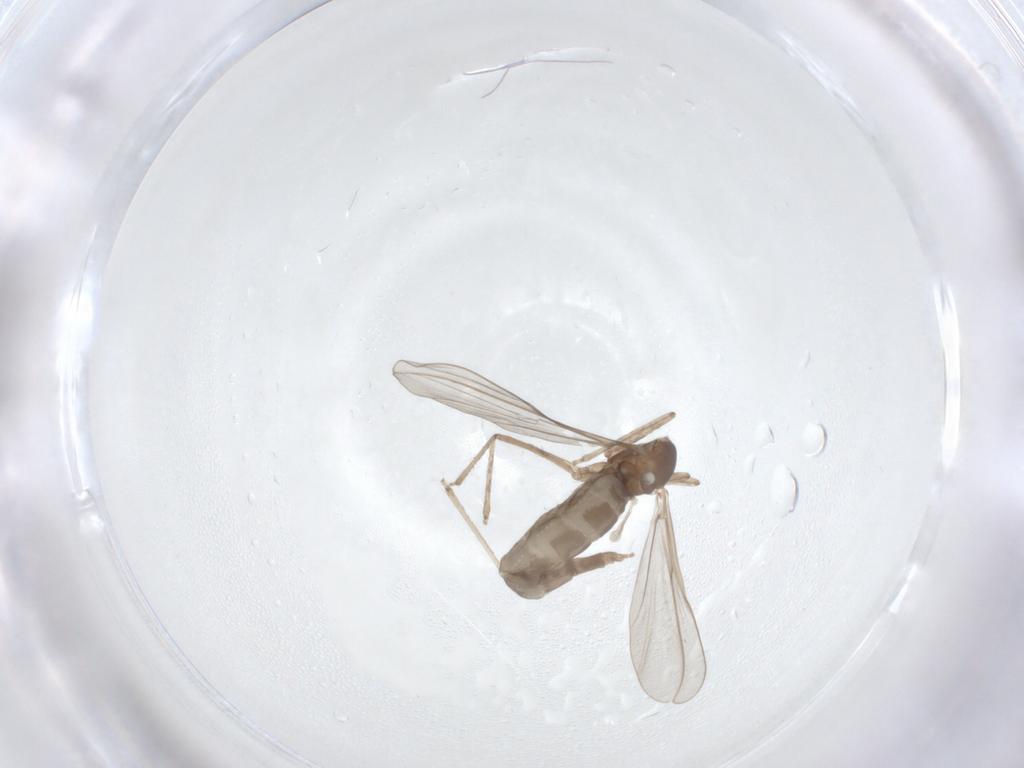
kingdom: Animalia
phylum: Arthropoda
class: Insecta
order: Diptera
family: Cecidomyiidae
